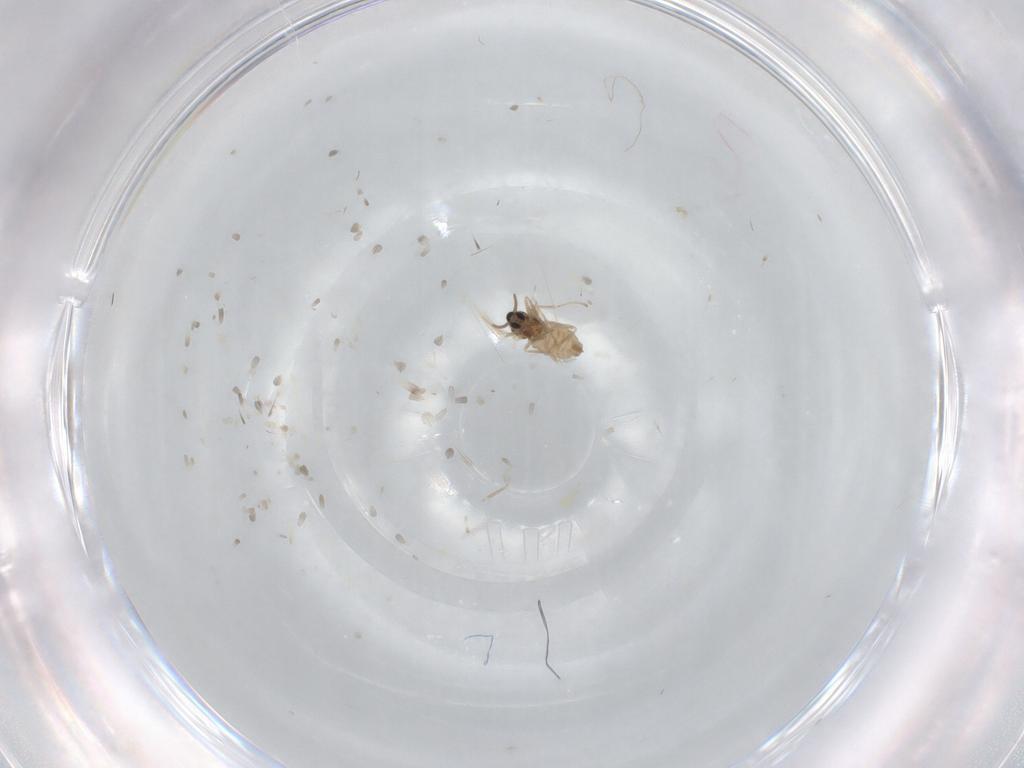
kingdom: Animalia
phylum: Arthropoda
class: Insecta
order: Diptera
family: Cecidomyiidae
